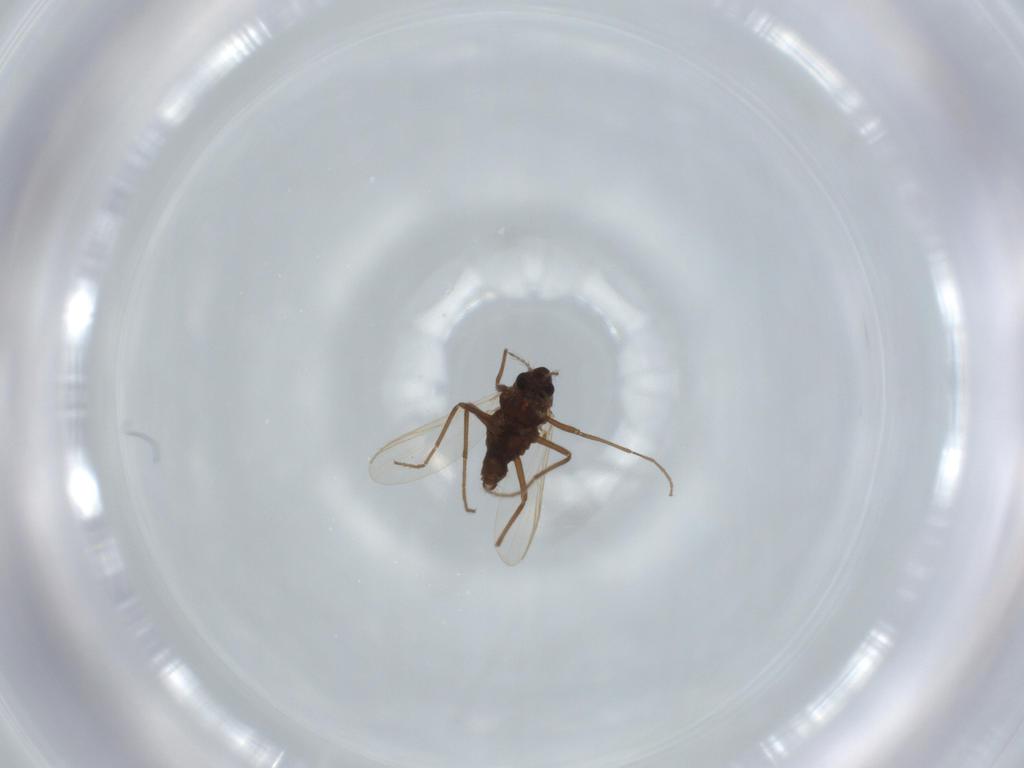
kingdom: Animalia
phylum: Arthropoda
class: Insecta
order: Diptera
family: Chironomidae
